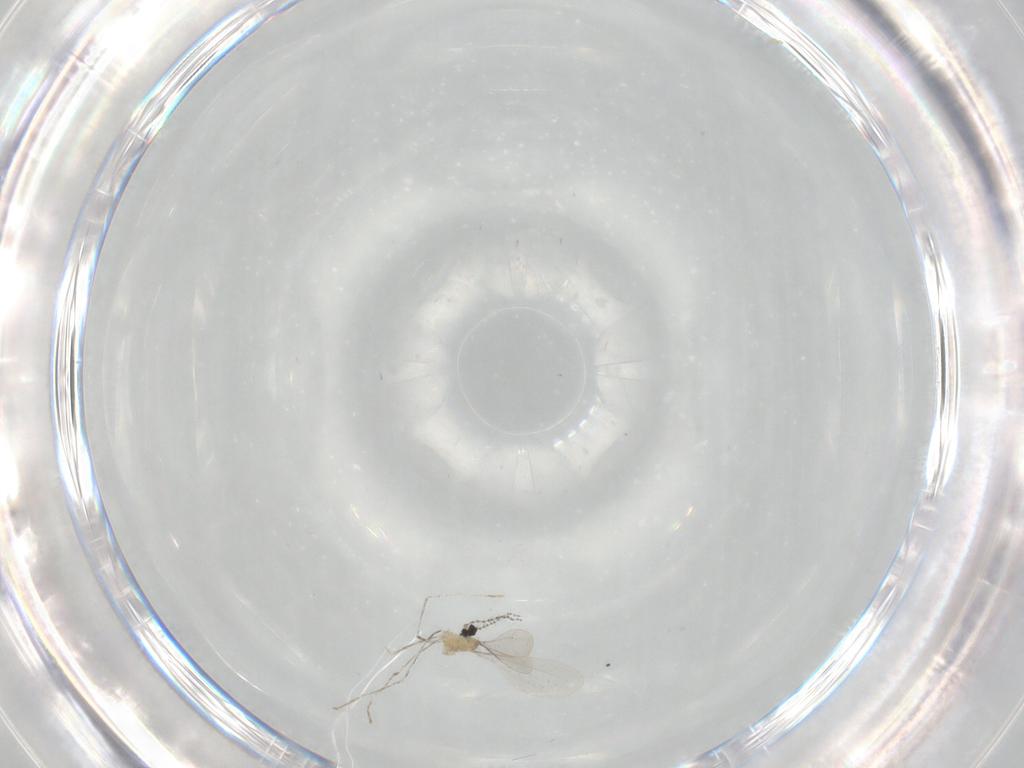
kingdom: Animalia
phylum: Arthropoda
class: Insecta
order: Diptera
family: Cecidomyiidae
